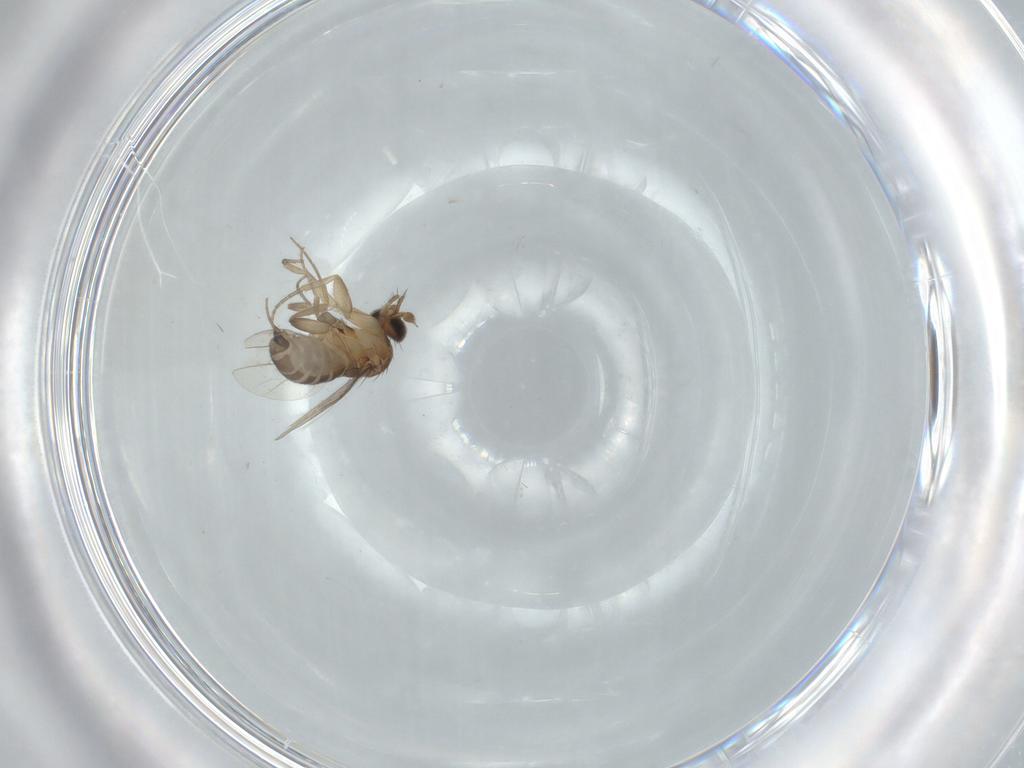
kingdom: Animalia
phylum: Arthropoda
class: Insecta
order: Diptera
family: Phoridae
